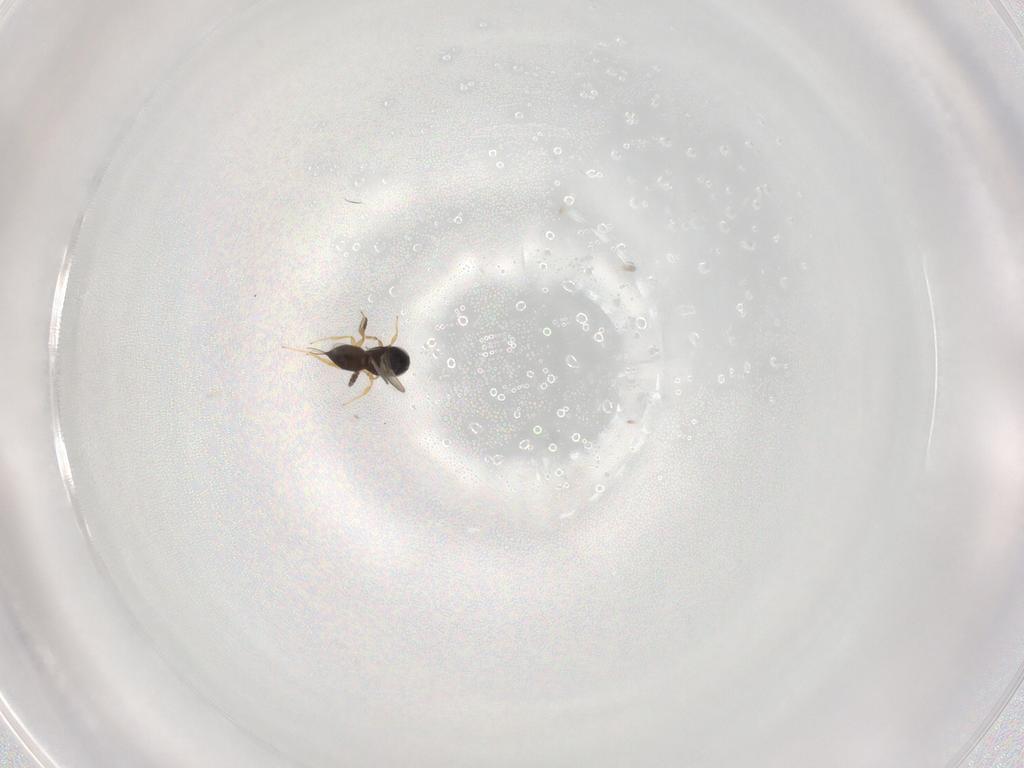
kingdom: Animalia
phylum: Arthropoda
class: Insecta
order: Hymenoptera
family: Scelionidae
